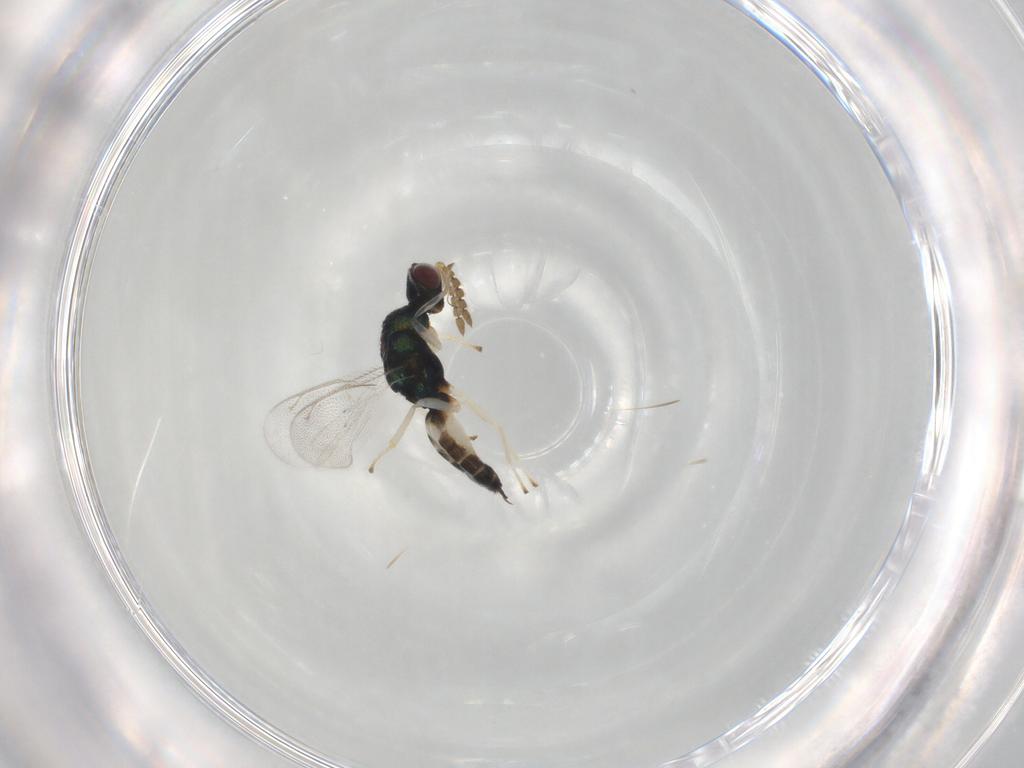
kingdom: Animalia
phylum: Arthropoda
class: Insecta
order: Hymenoptera
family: Eulophidae
